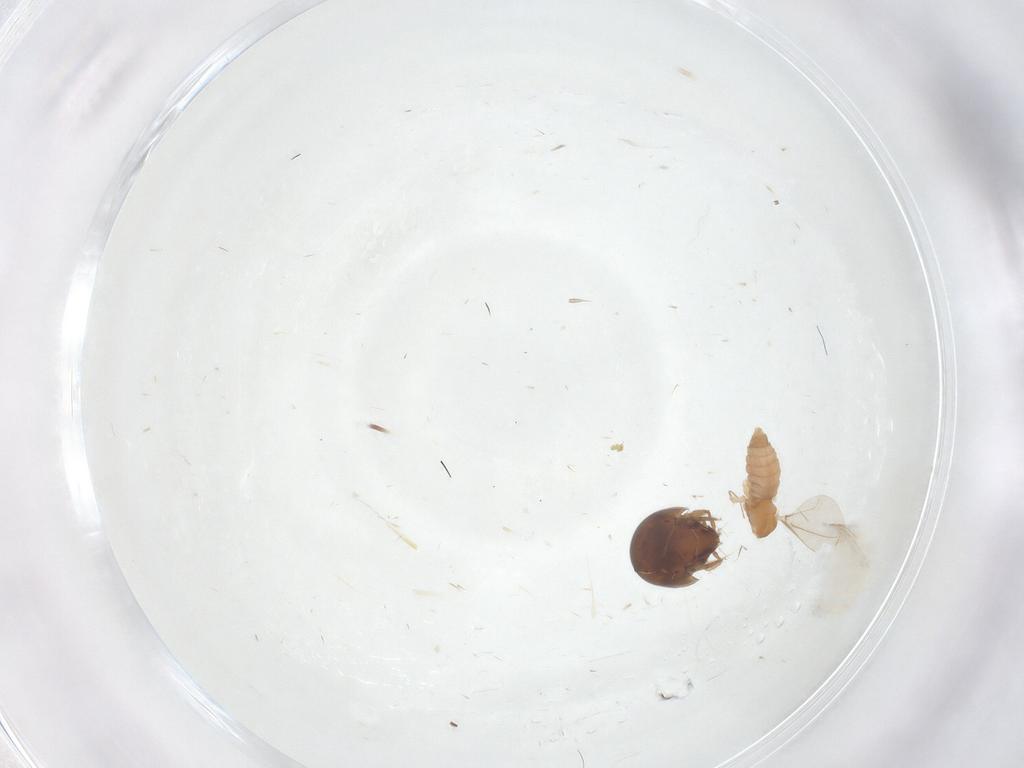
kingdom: Animalia
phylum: Arthropoda
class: Insecta
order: Diptera
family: Cecidomyiidae
